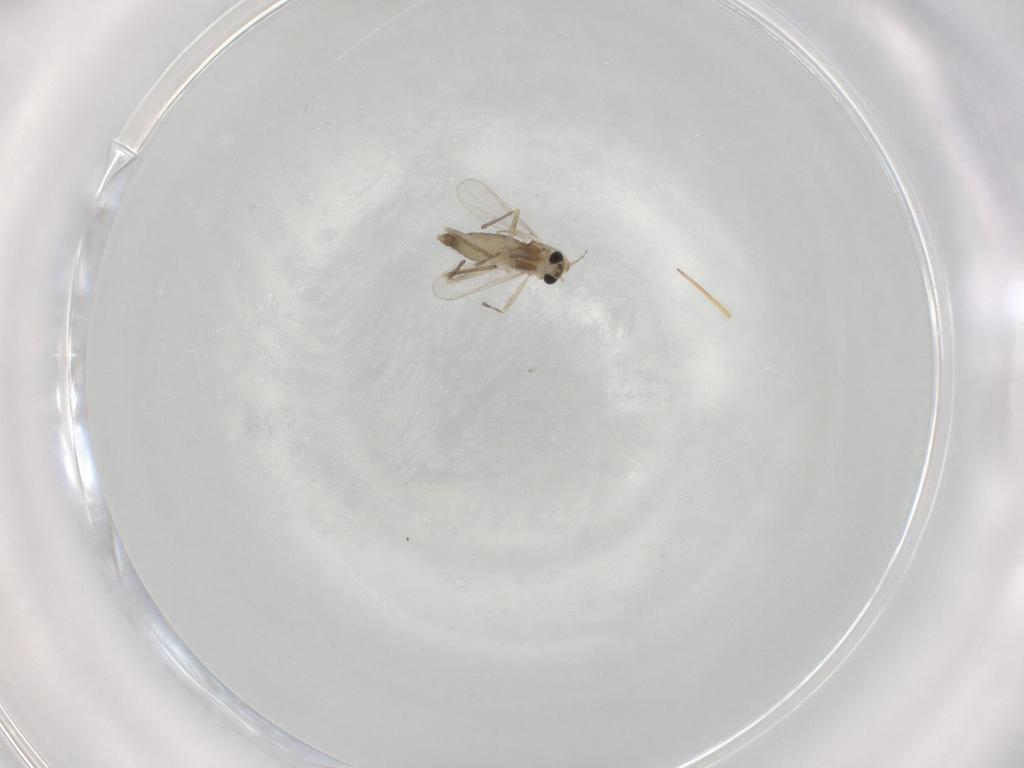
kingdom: Animalia
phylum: Arthropoda
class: Insecta
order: Diptera
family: Chironomidae
